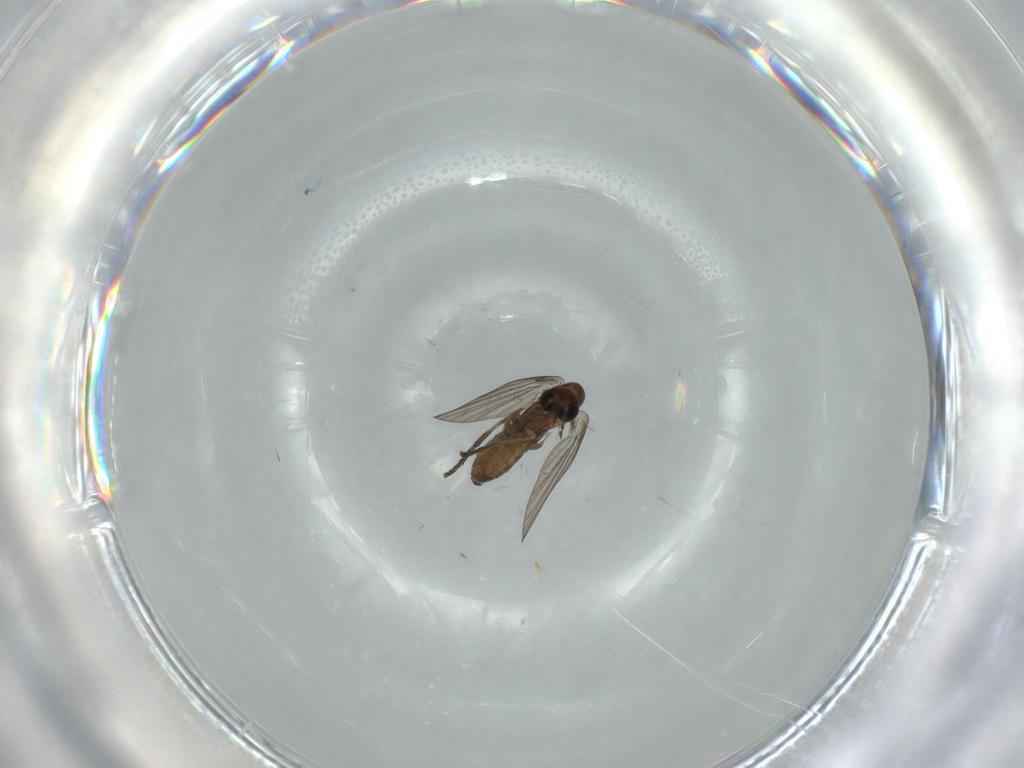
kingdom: Animalia
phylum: Arthropoda
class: Insecta
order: Diptera
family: Psychodidae
